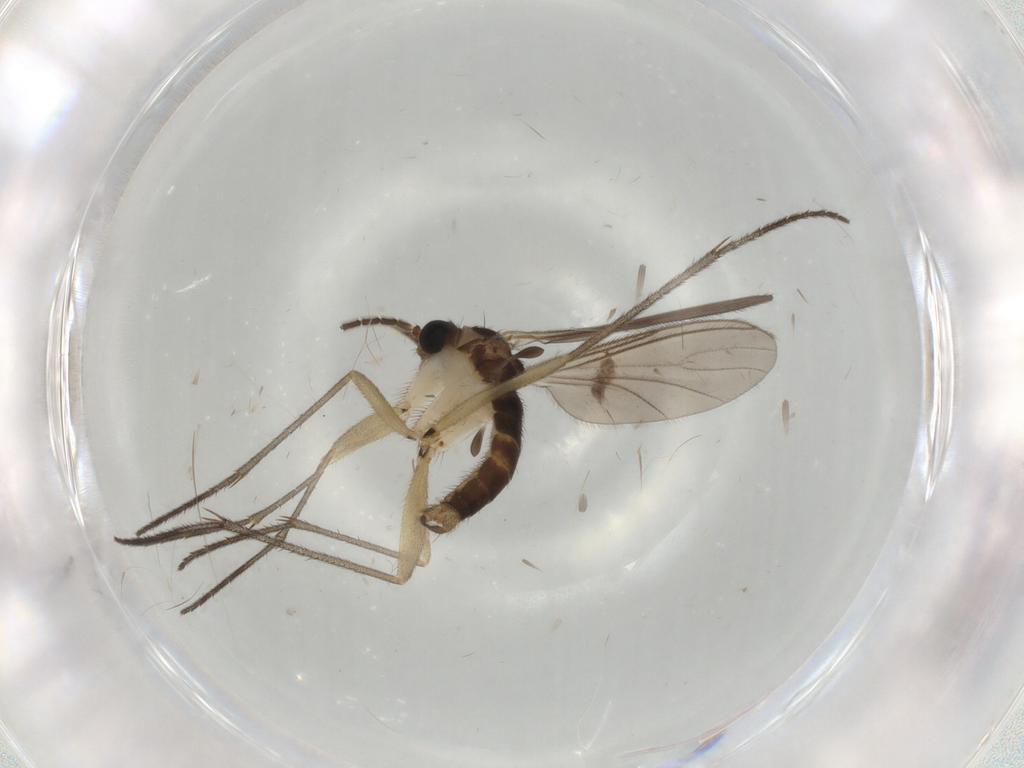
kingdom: Animalia
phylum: Arthropoda
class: Insecta
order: Diptera
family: Sciaridae
